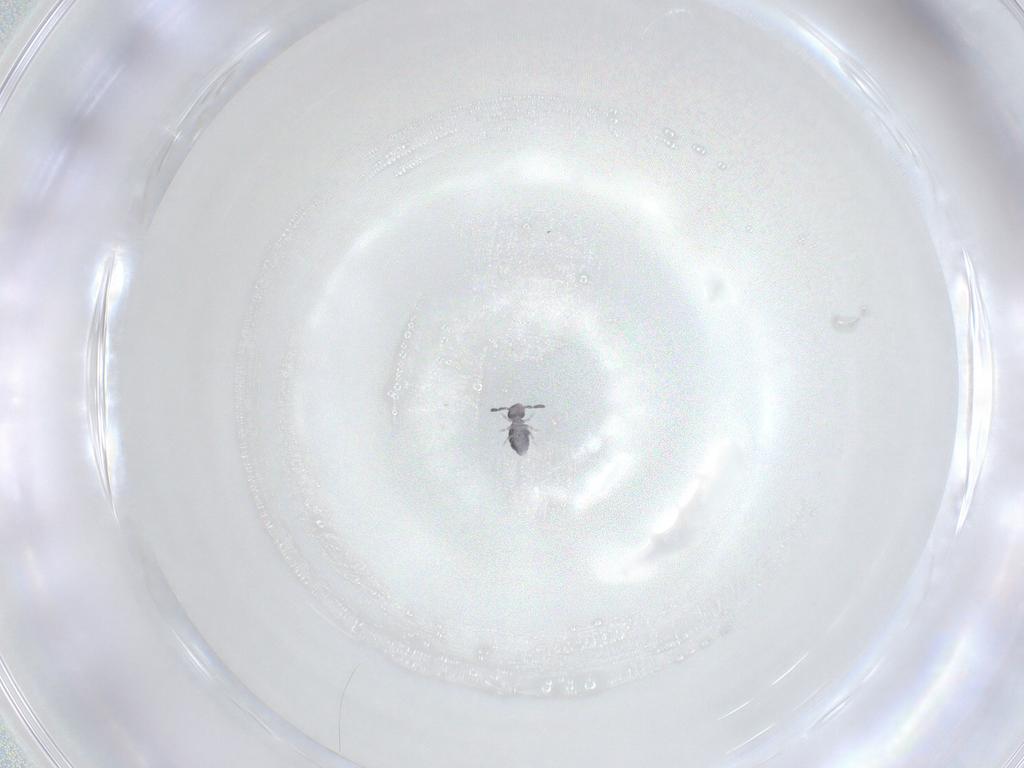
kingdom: Animalia
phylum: Arthropoda
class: Collembola
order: Symphypleona
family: Katiannidae
